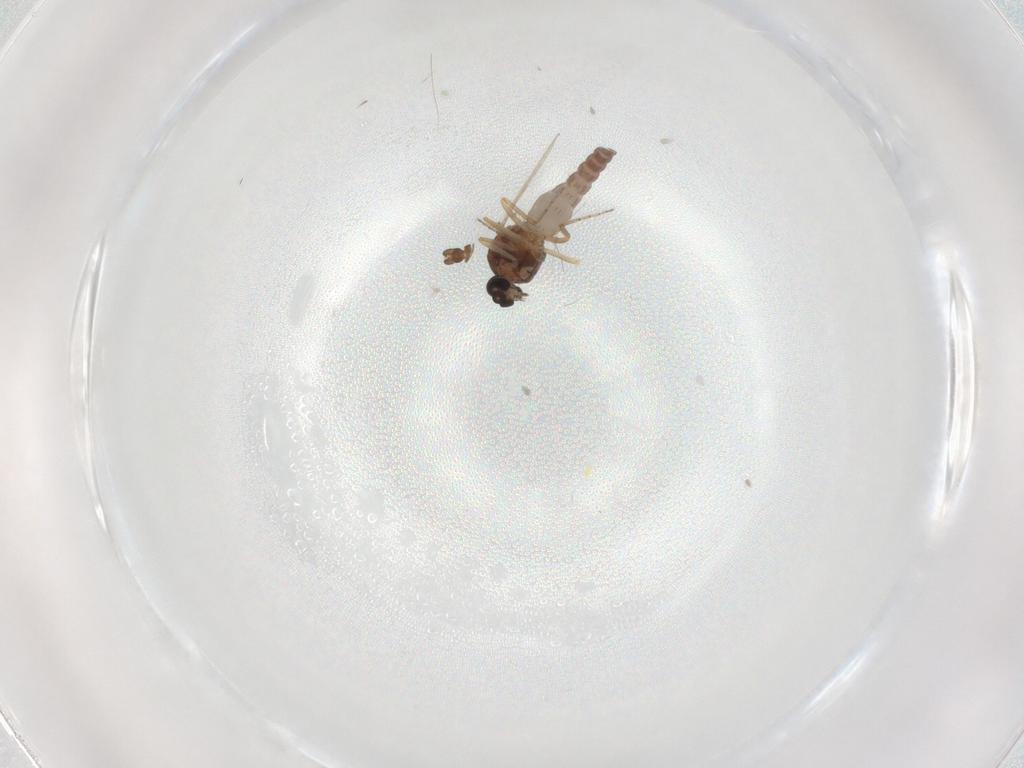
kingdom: Animalia
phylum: Arthropoda
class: Insecta
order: Diptera
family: Ceratopogonidae
